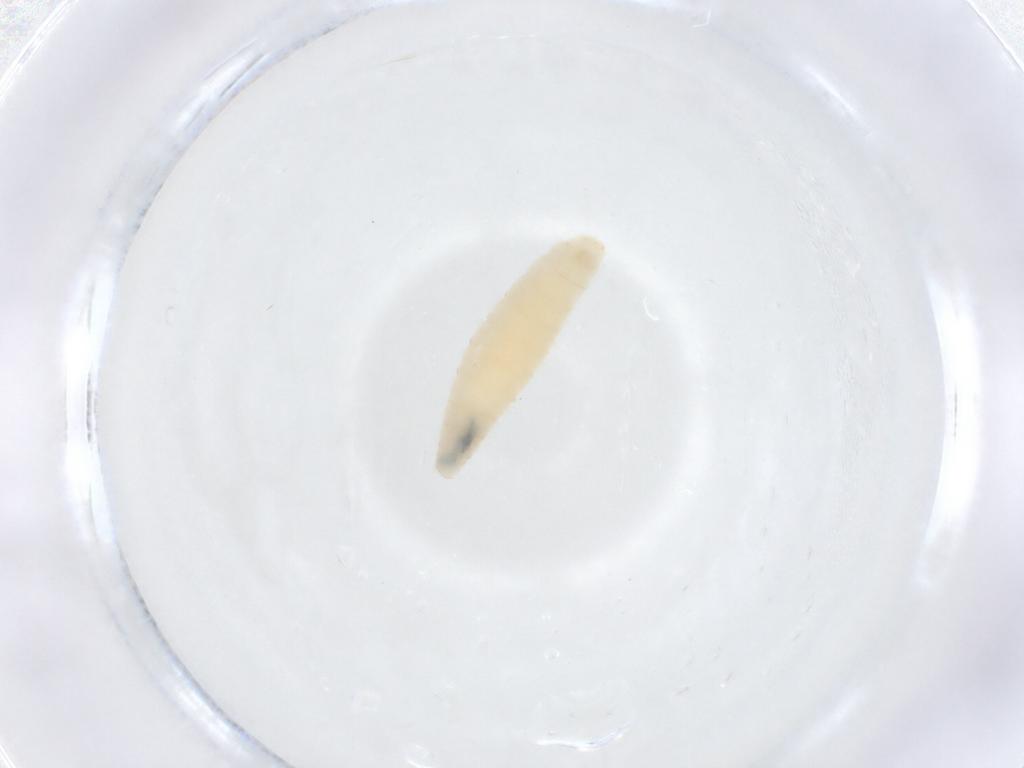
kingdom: Animalia
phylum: Arthropoda
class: Insecta
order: Diptera
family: Sarcophagidae
